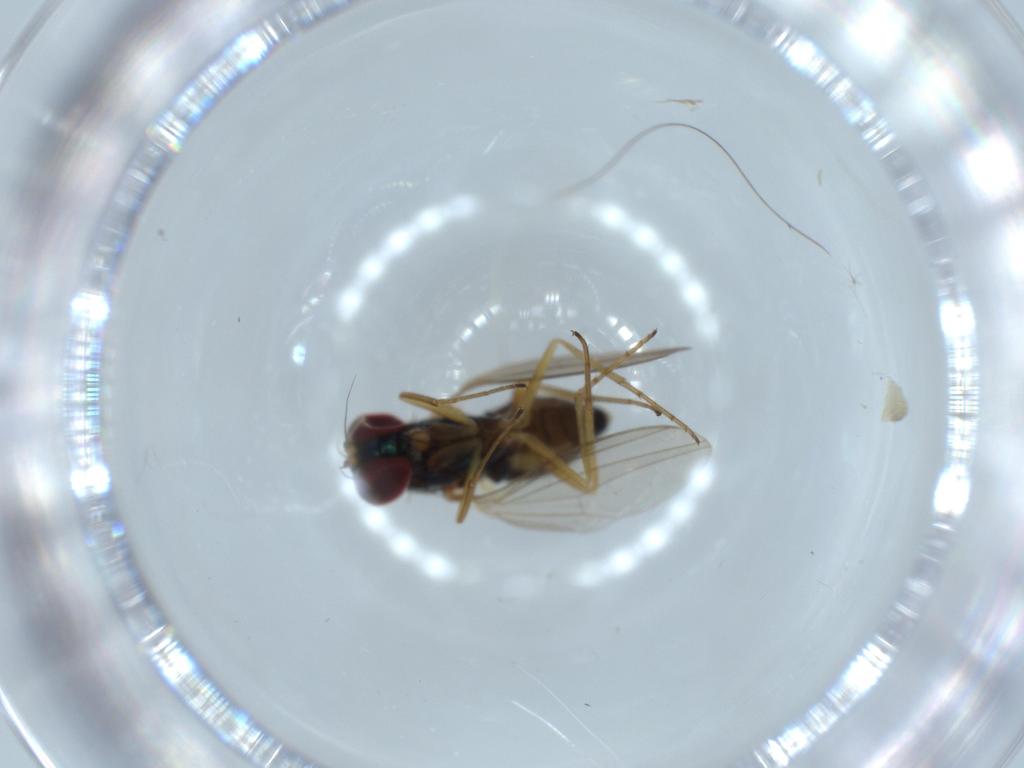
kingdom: Animalia
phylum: Arthropoda
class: Insecta
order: Diptera
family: Dolichopodidae
